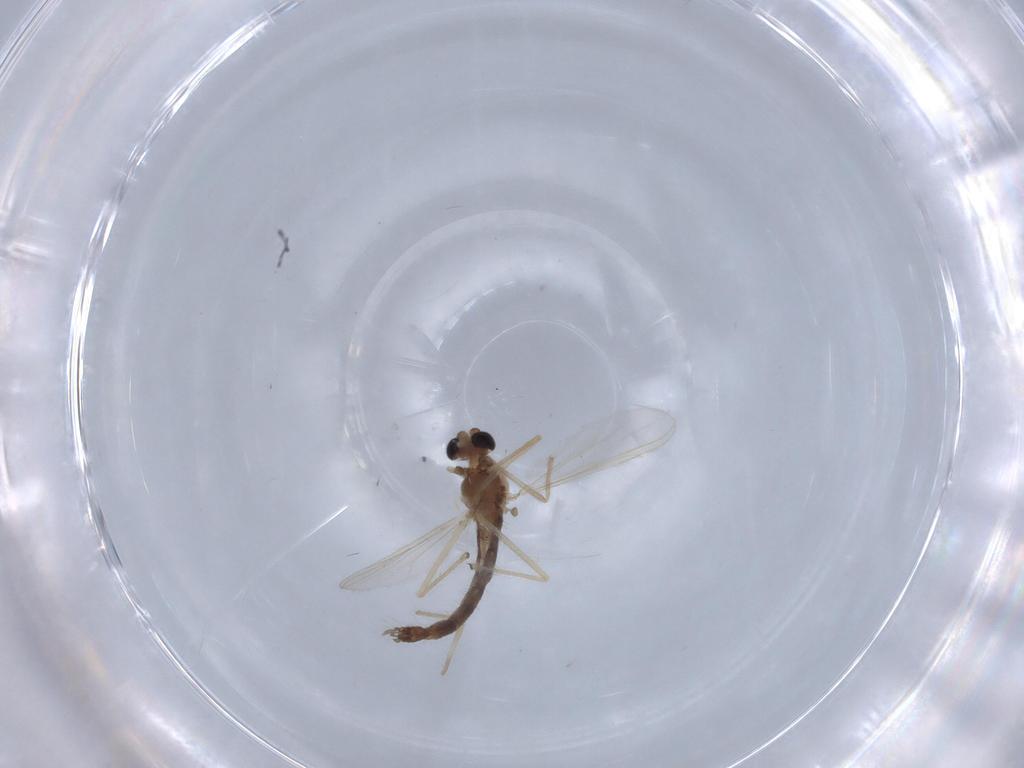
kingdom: Animalia
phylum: Arthropoda
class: Insecta
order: Diptera
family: Chironomidae
